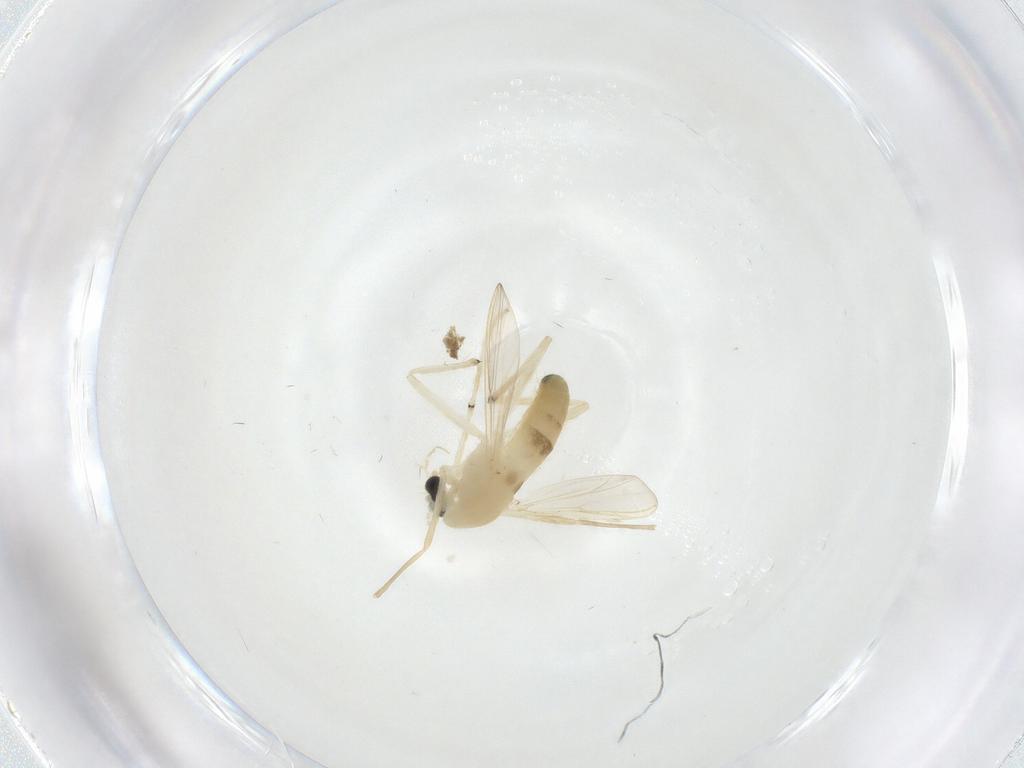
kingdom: Animalia
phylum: Arthropoda
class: Insecta
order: Diptera
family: Chironomidae
